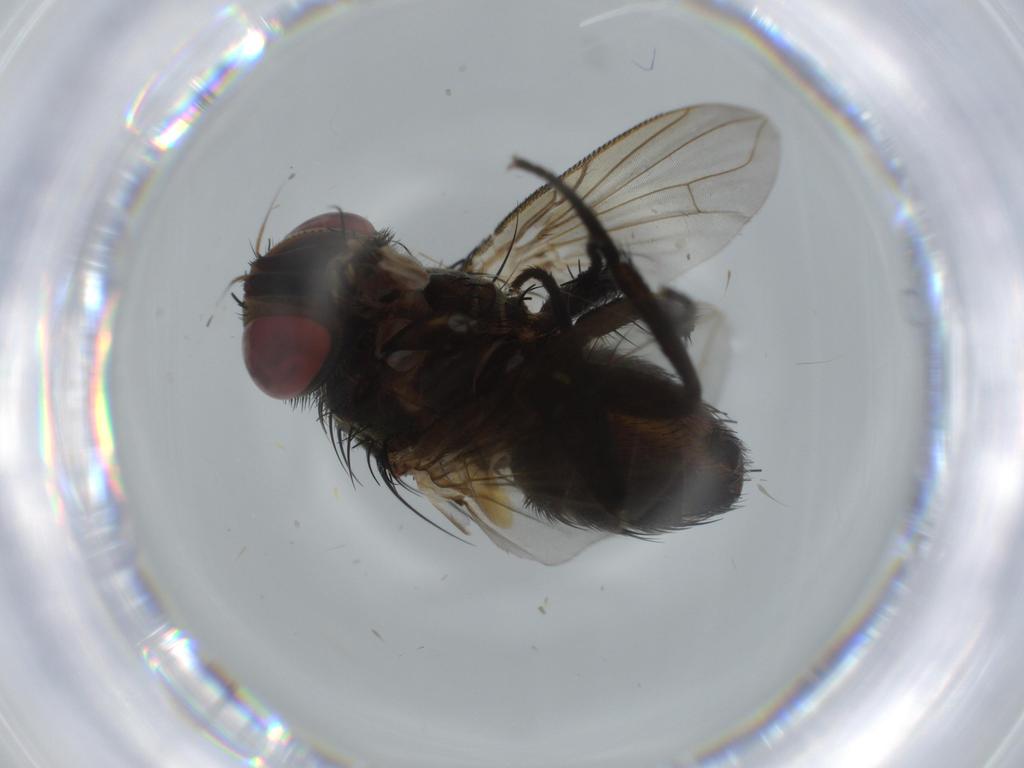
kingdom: Animalia
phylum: Arthropoda
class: Insecta
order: Diptera
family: Sciaridae
